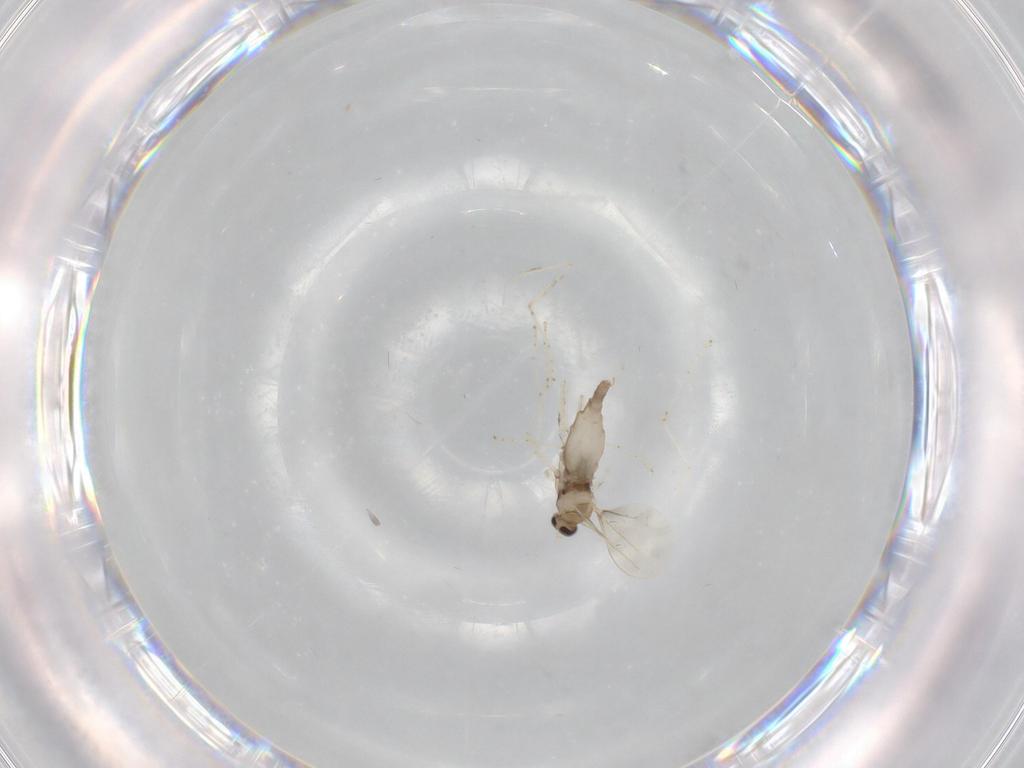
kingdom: Animalia
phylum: Arthropoda
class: Insecta
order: Diptera
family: Cecidomyiidae
